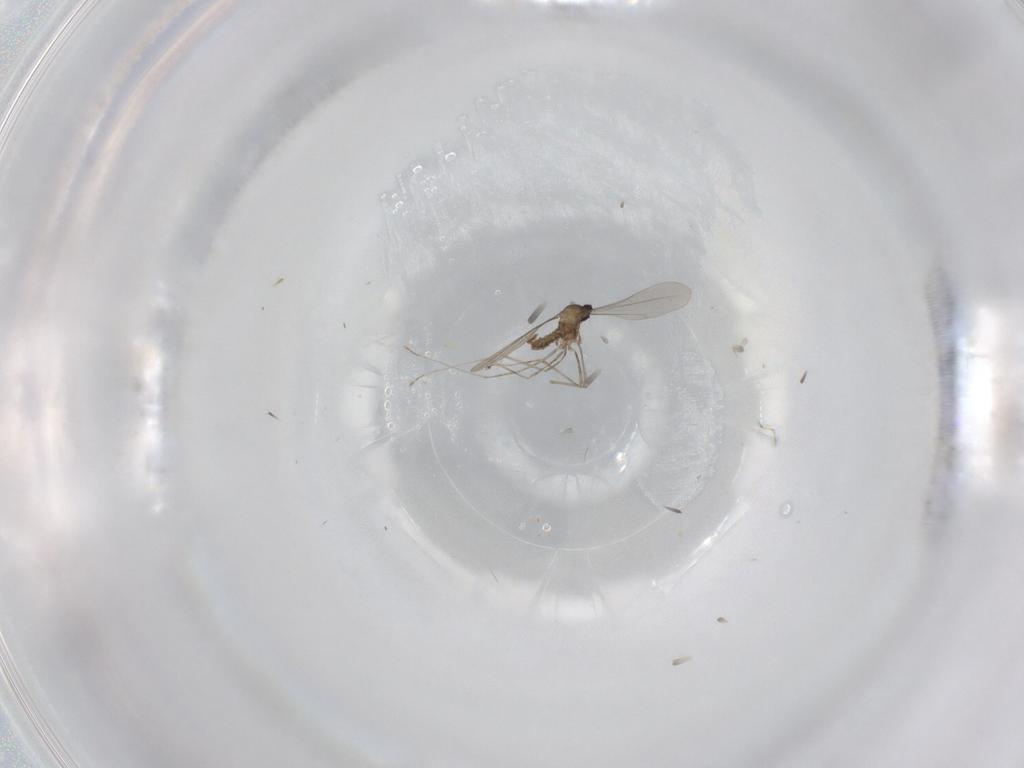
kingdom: Animalia
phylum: Arthropoda
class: Insecta
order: Diptera
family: Cecidomyiidae
